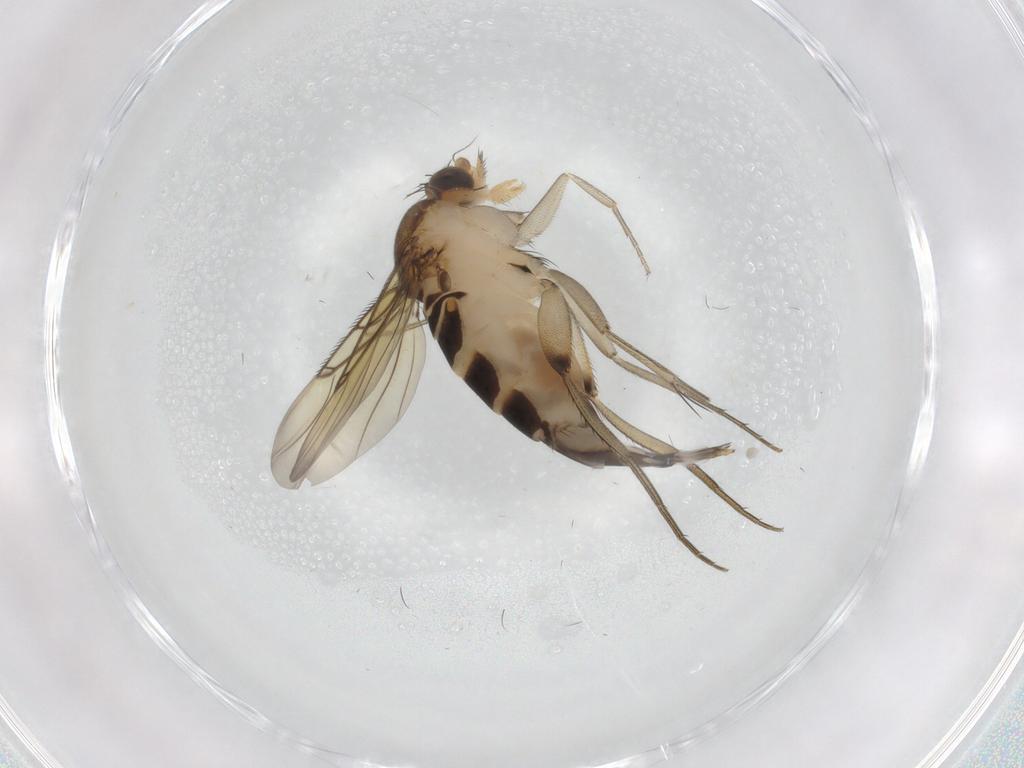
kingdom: Animalia
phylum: Arthropoda
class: Insecta
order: Diptera
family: Phoridae
